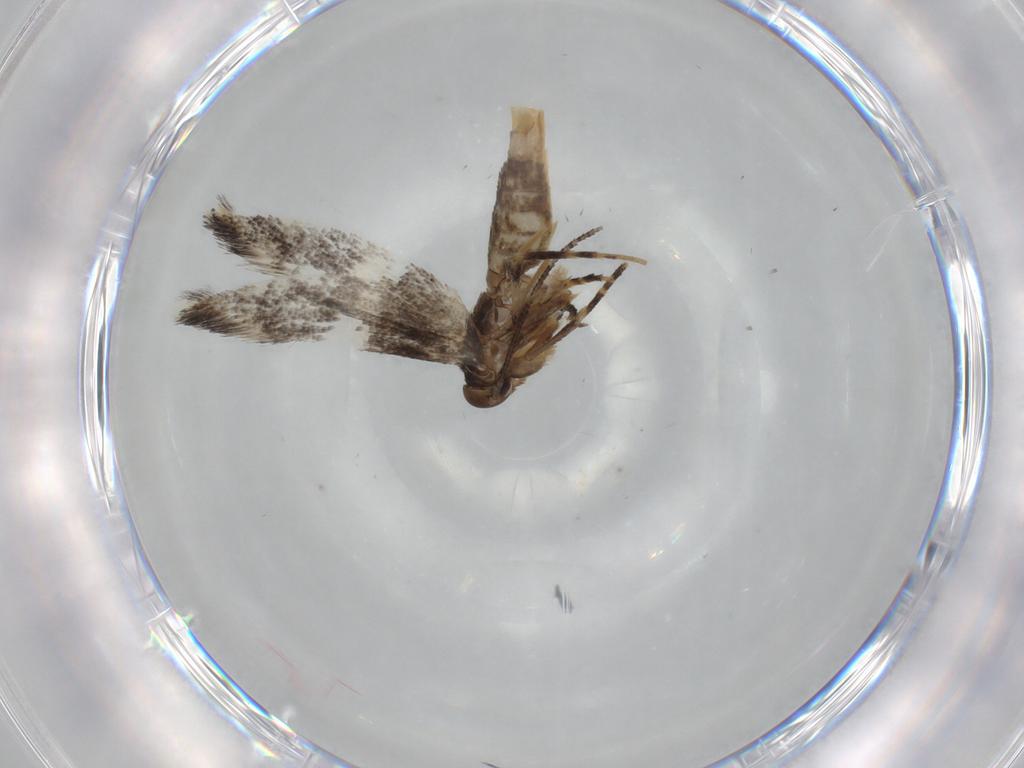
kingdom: Animalia
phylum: Arthropoda
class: Insecta
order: Lepidoptera
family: Elachistidae
